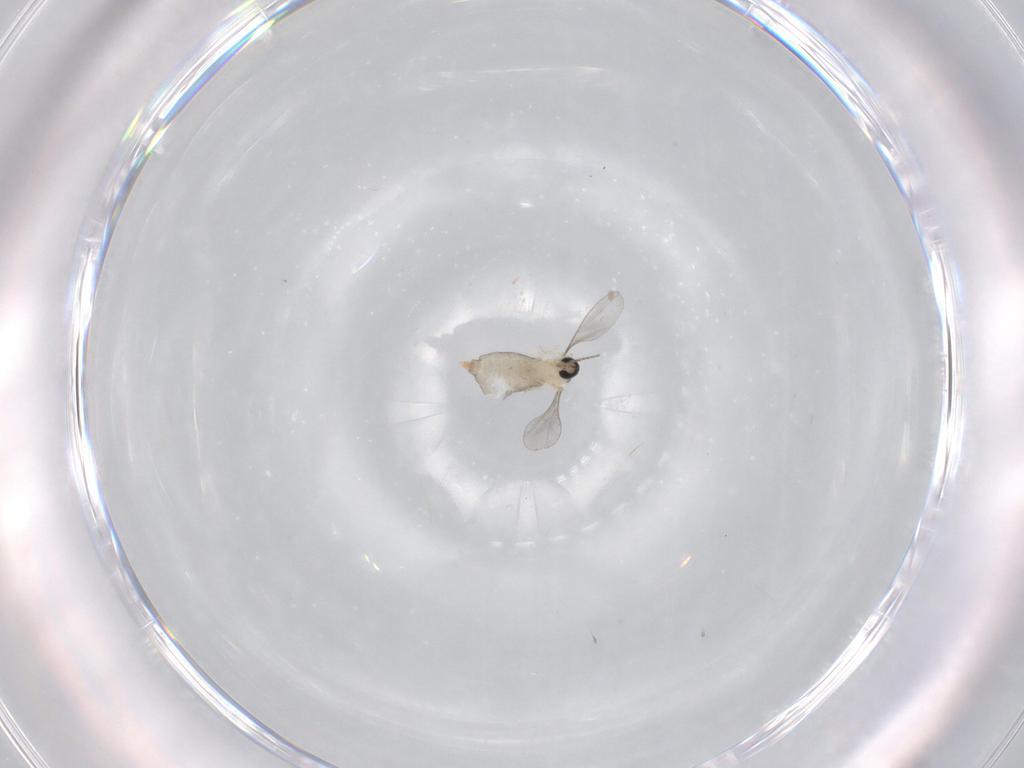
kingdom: Animalia
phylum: Arthropoda
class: Insecta
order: Diptera
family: Cecidomyiidae
